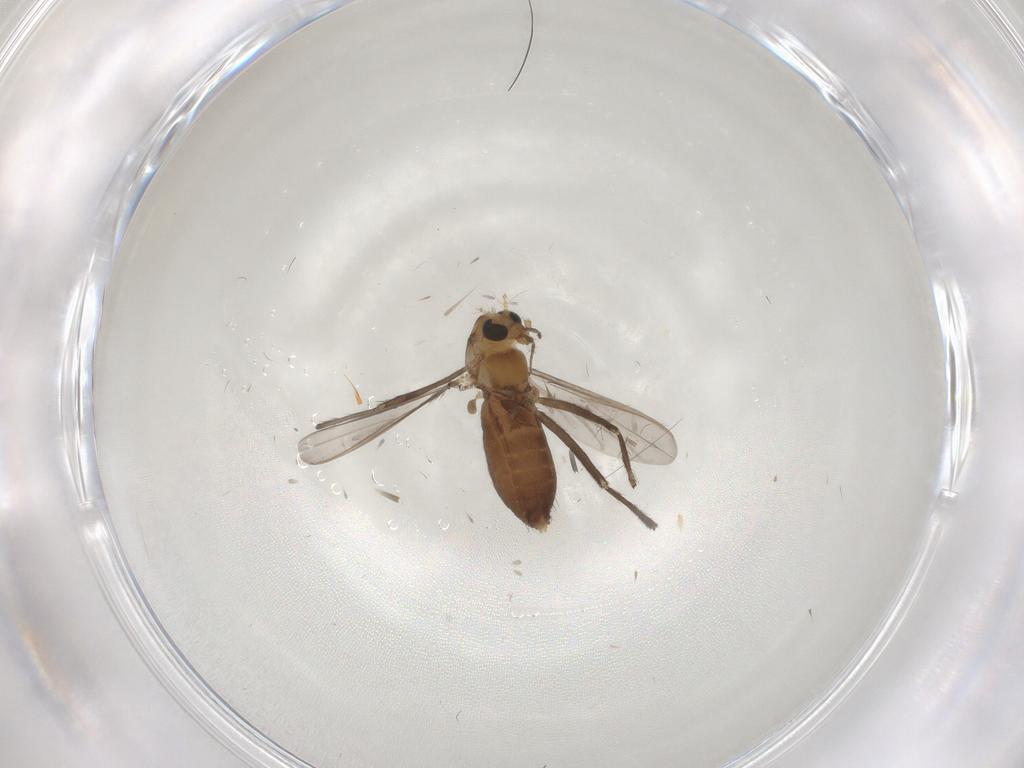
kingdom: Animalia
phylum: Arthropoda
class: Insecta
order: Diptera
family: Chironomidae
